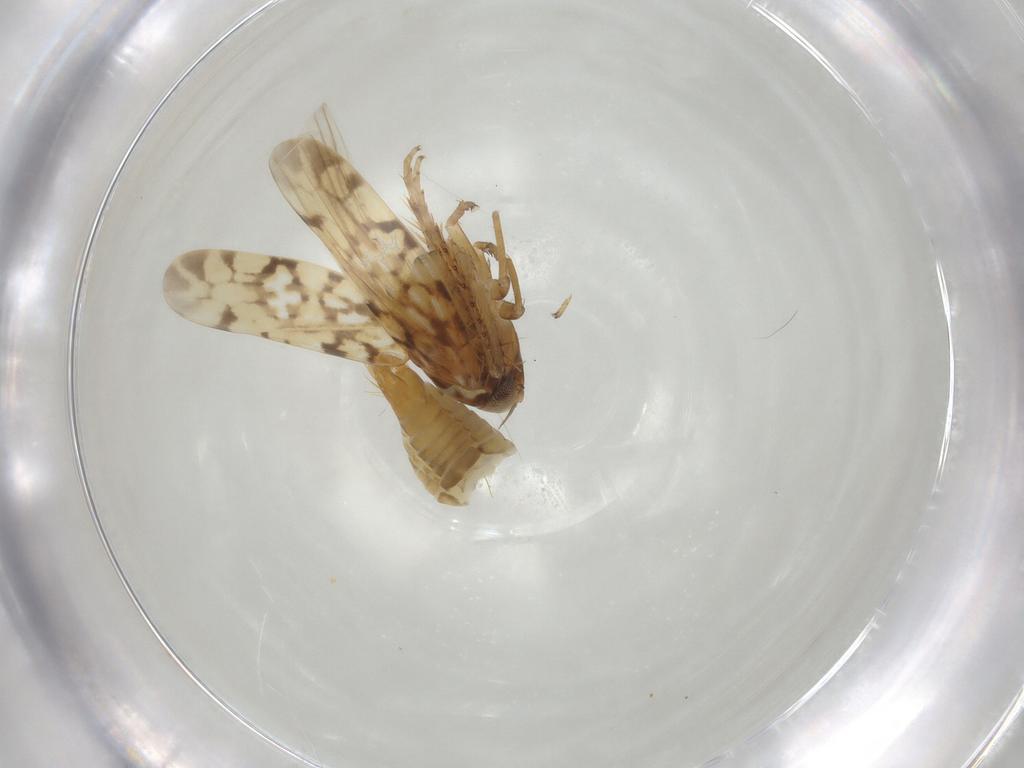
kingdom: Animalia
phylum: Arthropoda
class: Insecta
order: Hemiptera
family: Cicadellidae
